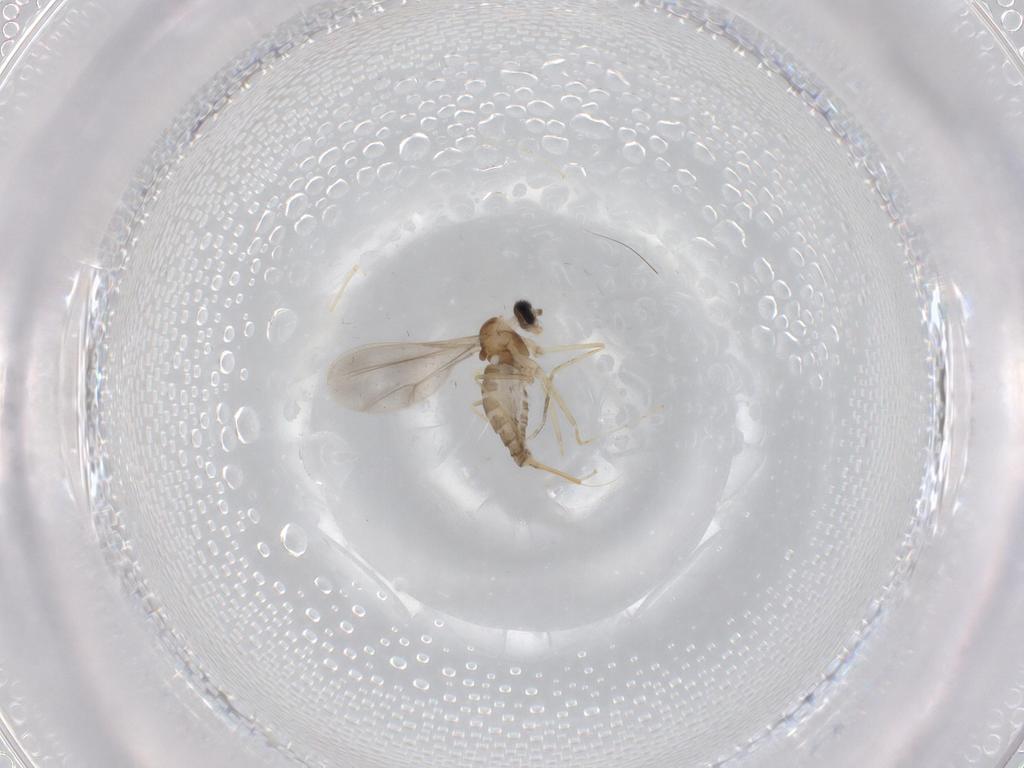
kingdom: Animalia
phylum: Arthropoda
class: Insecta
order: Diptera
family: Cecidomyiidae
